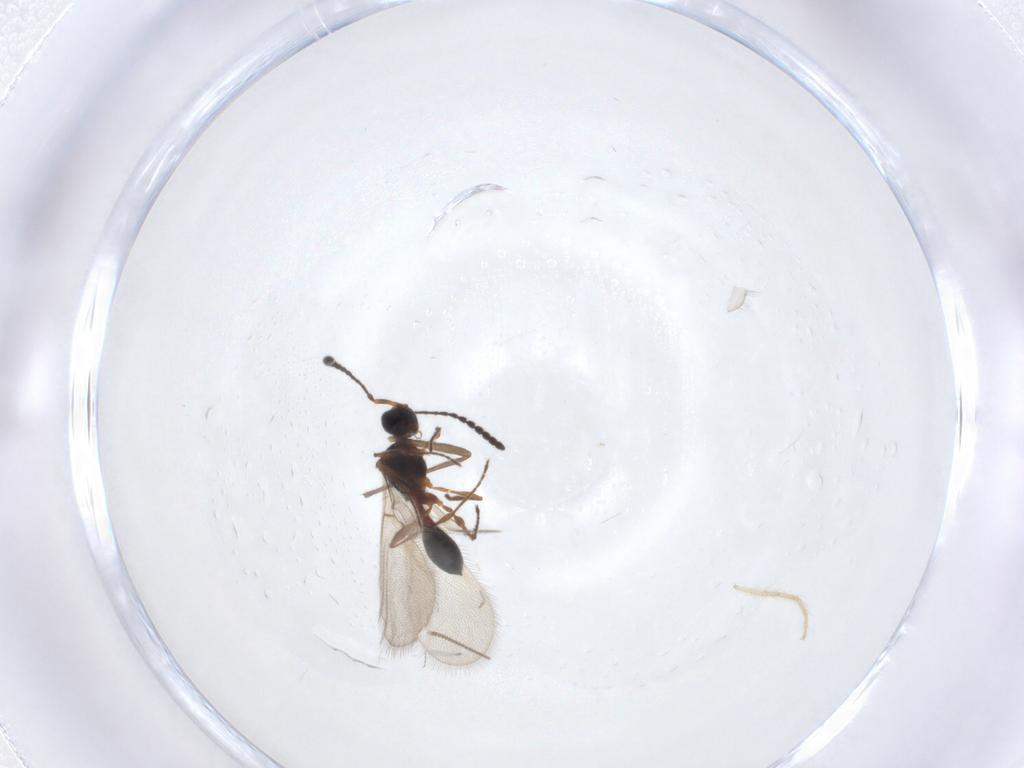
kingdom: Animalia
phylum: Arthropoda
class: Insecta
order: Hymenoptera
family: Diapriidae
